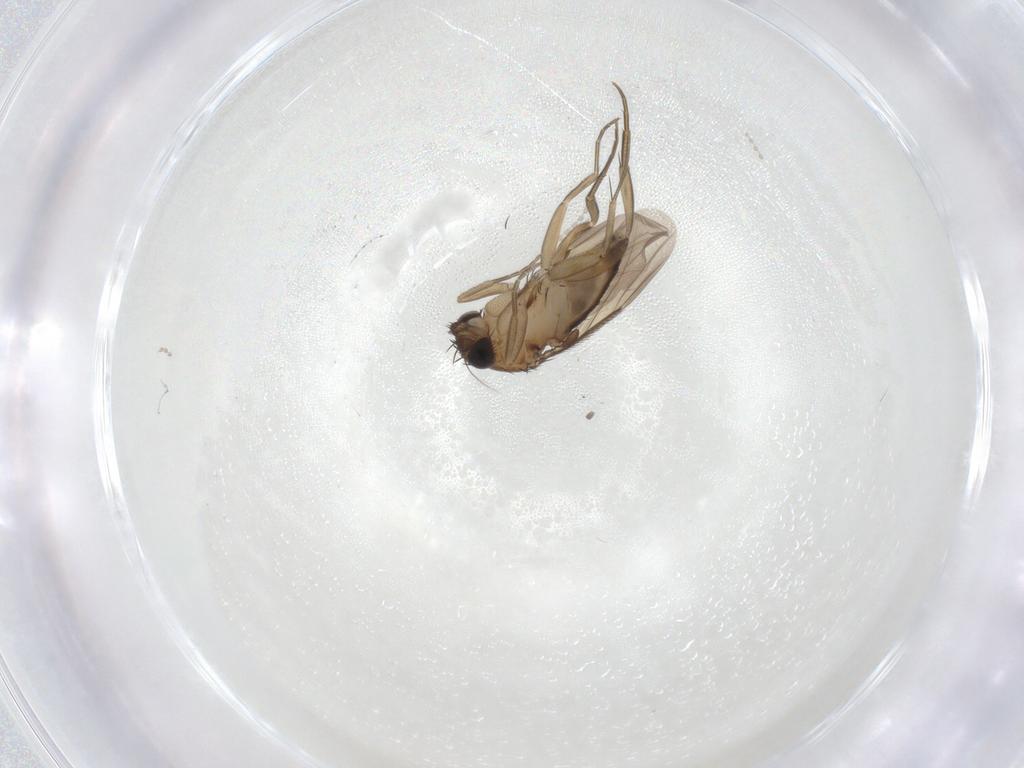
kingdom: Animalia
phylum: Arthropoda
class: Insecta
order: Diptera
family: Phoridae
